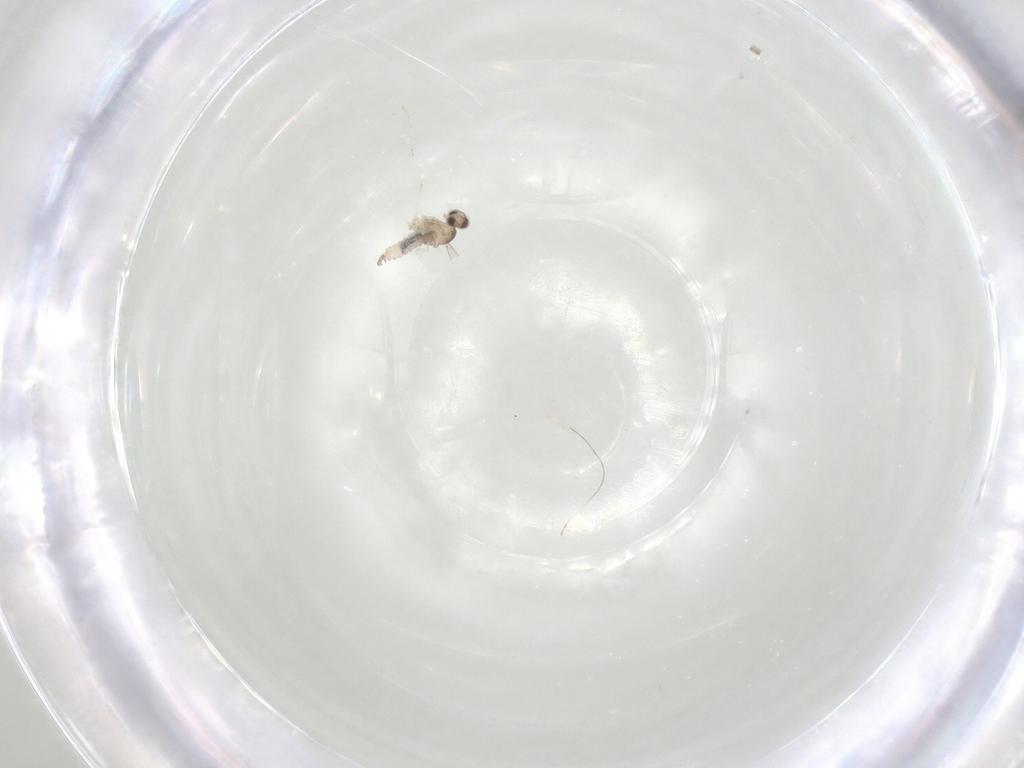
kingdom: Animalia
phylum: Arthropoda
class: Insecta
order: Diptera
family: Cecidomyiidae
